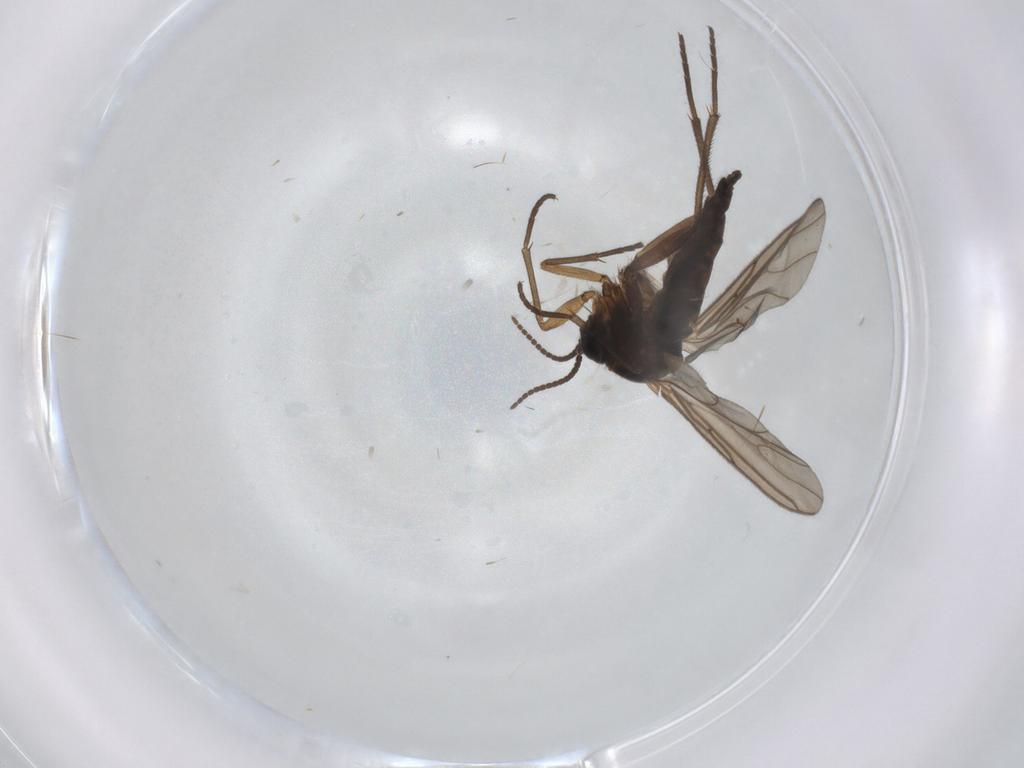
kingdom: Animalia
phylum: Arthropoda
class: Insecta
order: Diptera
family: Sciaridae
